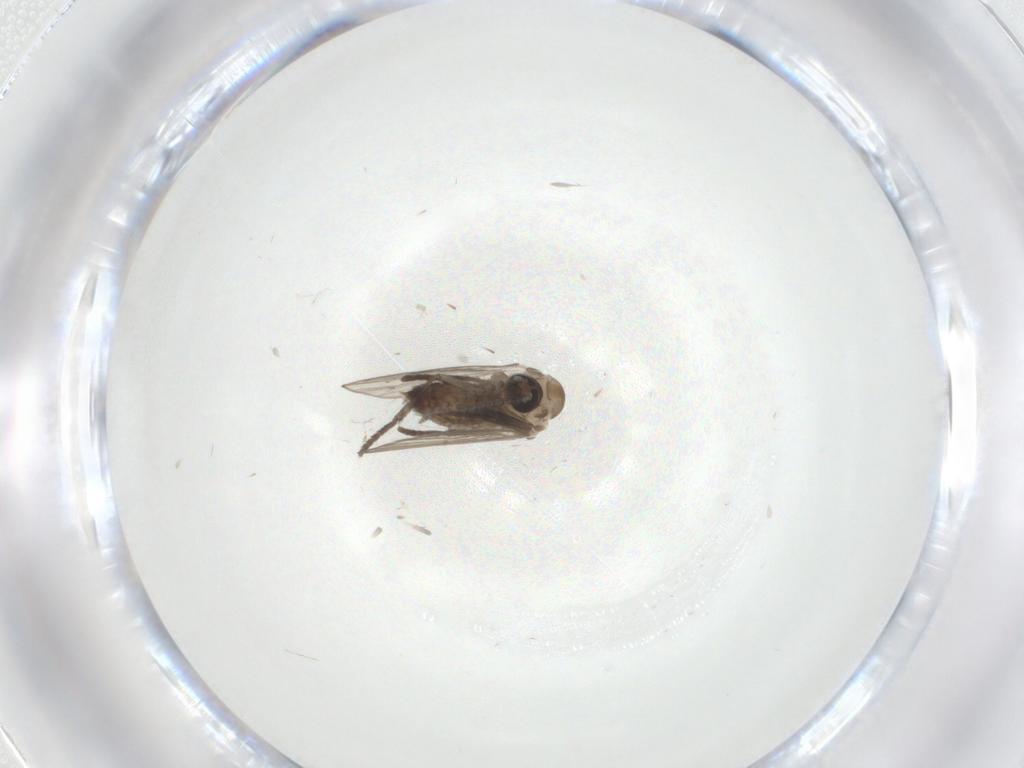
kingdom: Animalia
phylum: Arthropoda
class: Insecta
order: Diptera
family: Psychodidae
